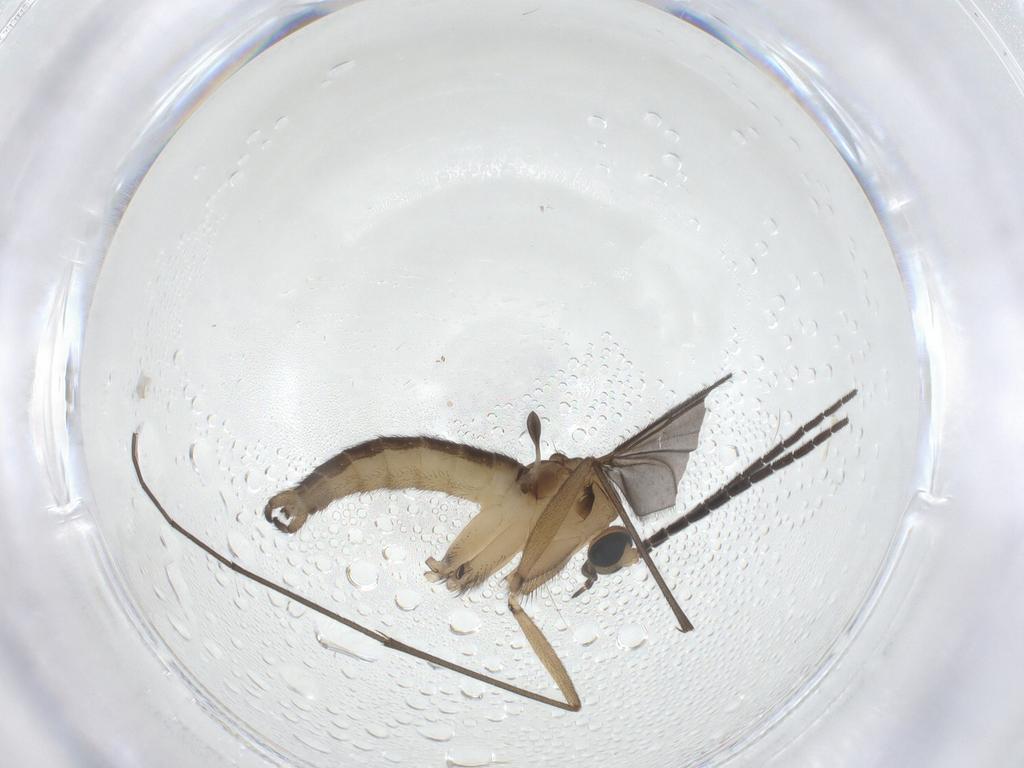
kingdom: Animalia
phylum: Arthropoda
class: Insecta
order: Diptera
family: Sciaridae
